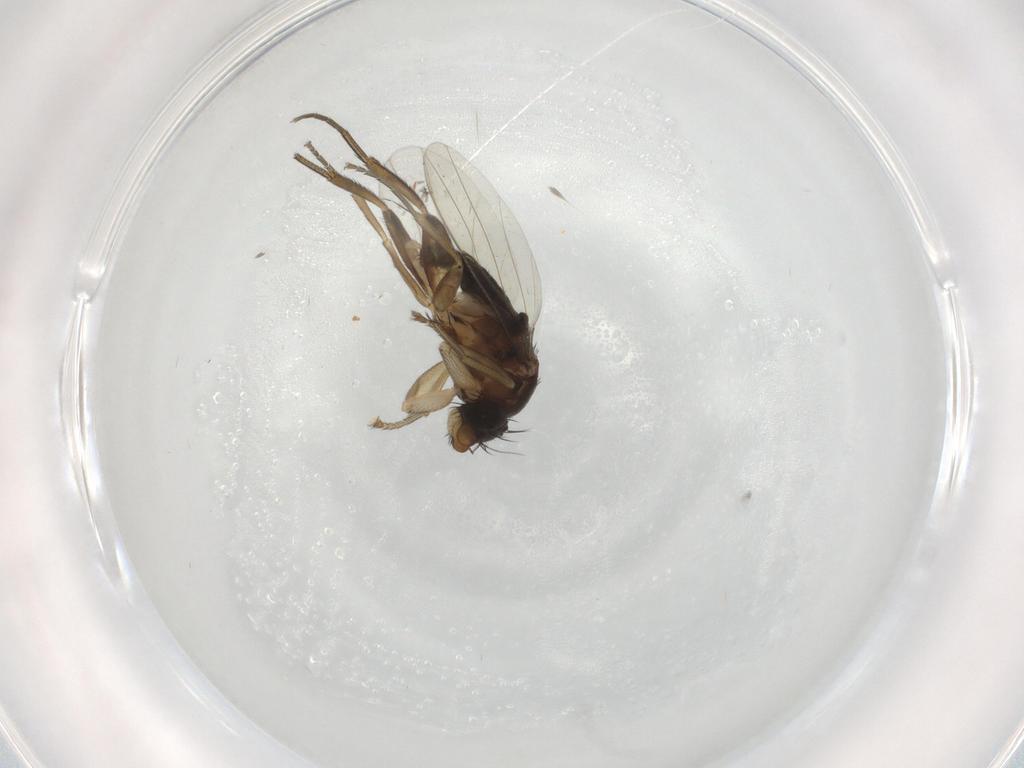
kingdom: Animalia
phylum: Arthropoda
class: Insecta
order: Diptera
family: Phoridae
